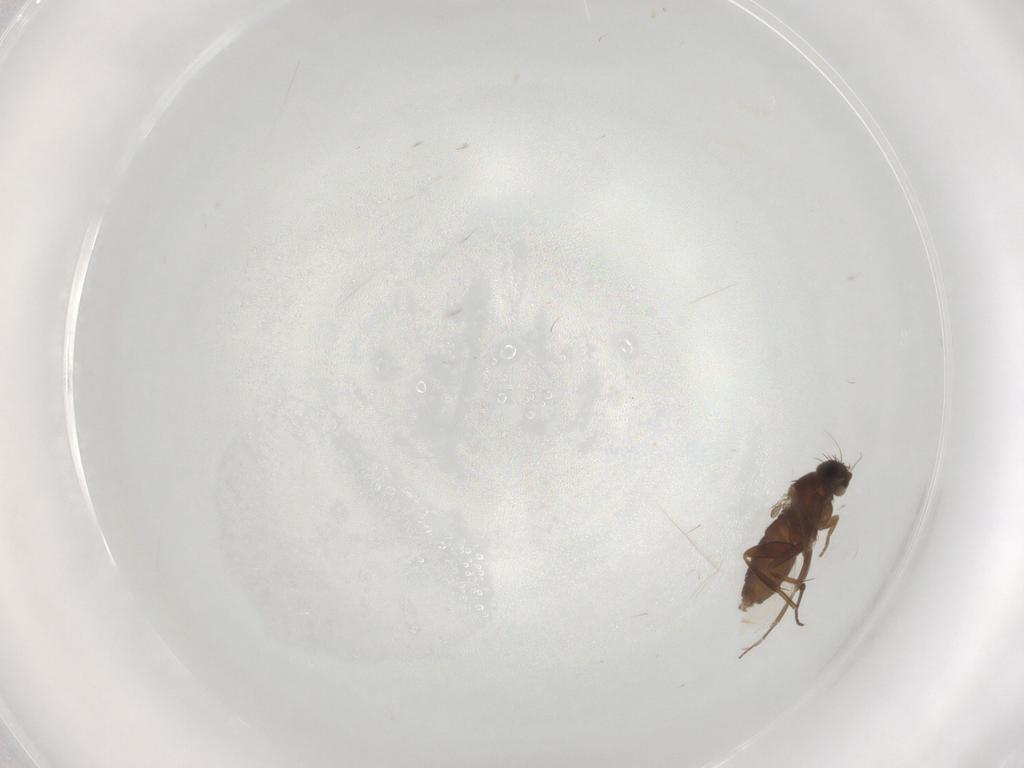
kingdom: Animalia
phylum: Arthropoda
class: Insecta
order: Diptera
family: Phoridae
